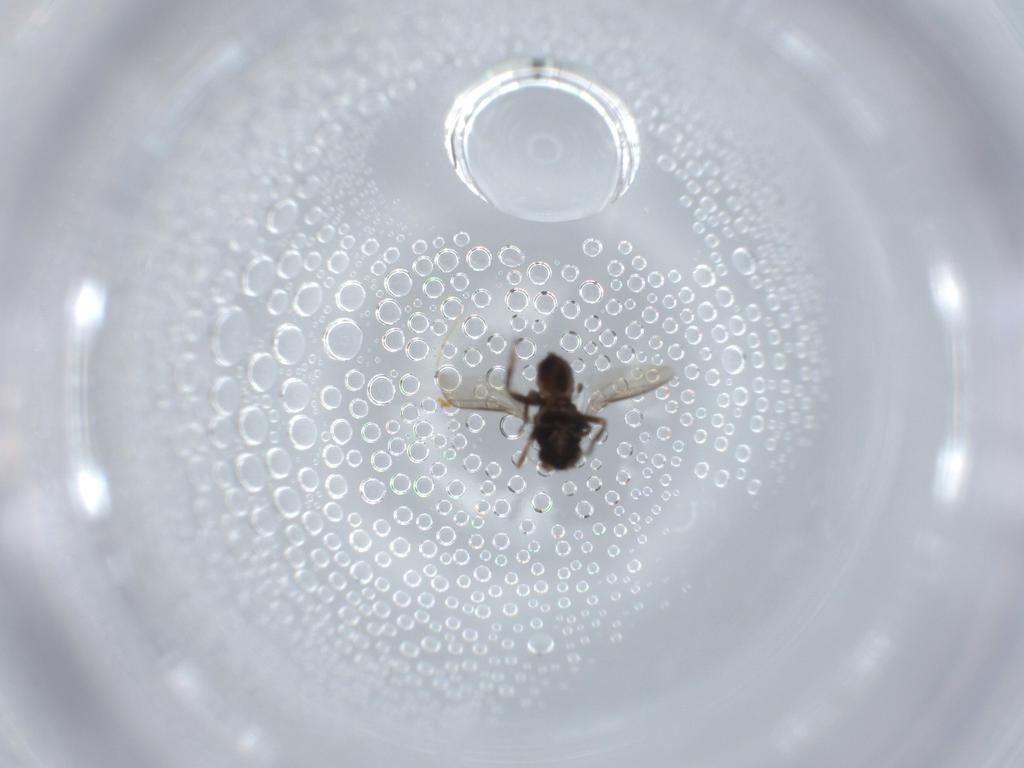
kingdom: Animalia
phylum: Arthropoda
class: Insecta
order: Diptera
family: Sphaeroceridae
